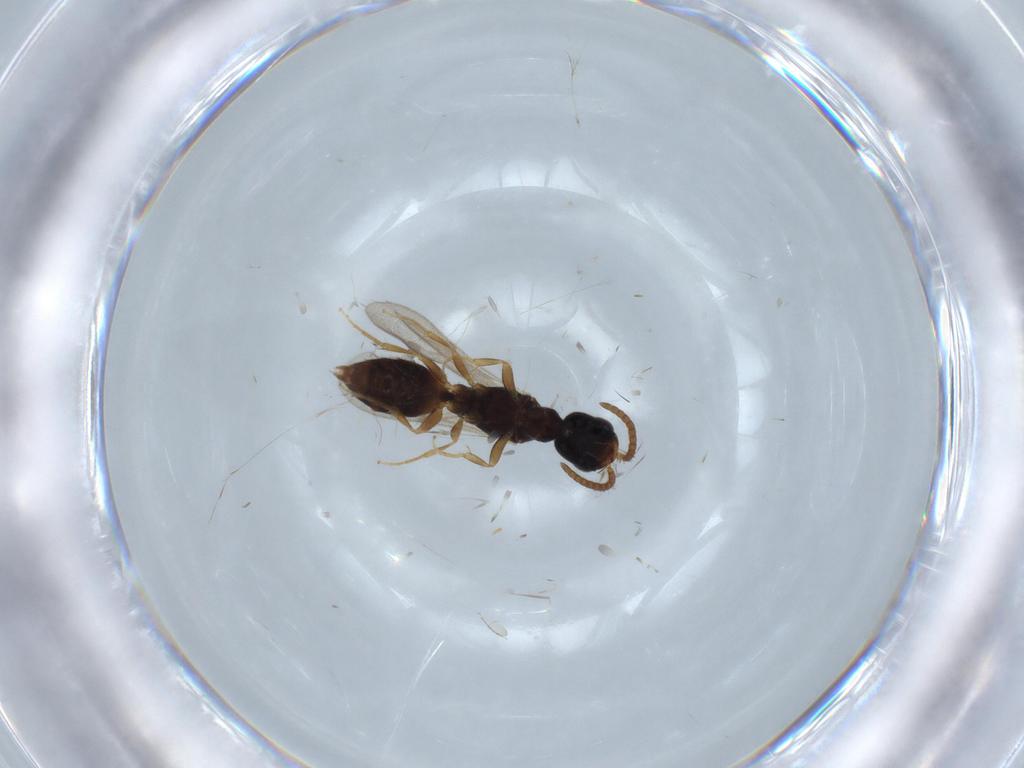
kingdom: Animalia
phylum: Arthropoda
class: Insecta
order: Hymenoptera
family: Bethylidae
